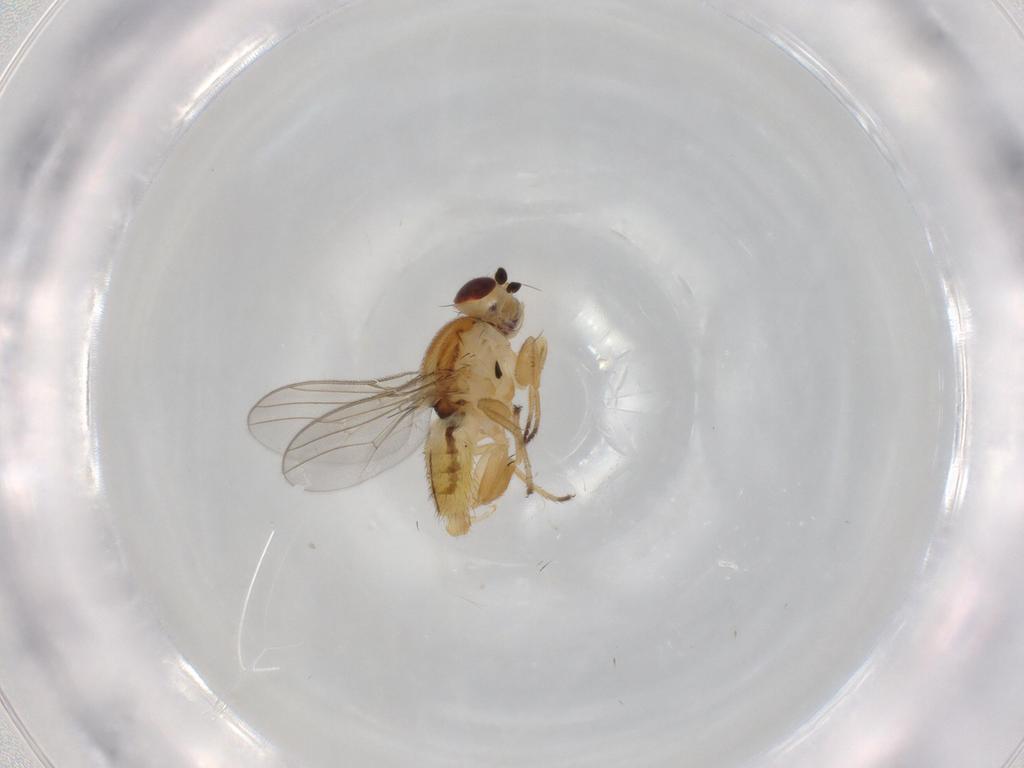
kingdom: Animalia
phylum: Arthropoda
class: Insecta
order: Diptera
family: Chloropidae
